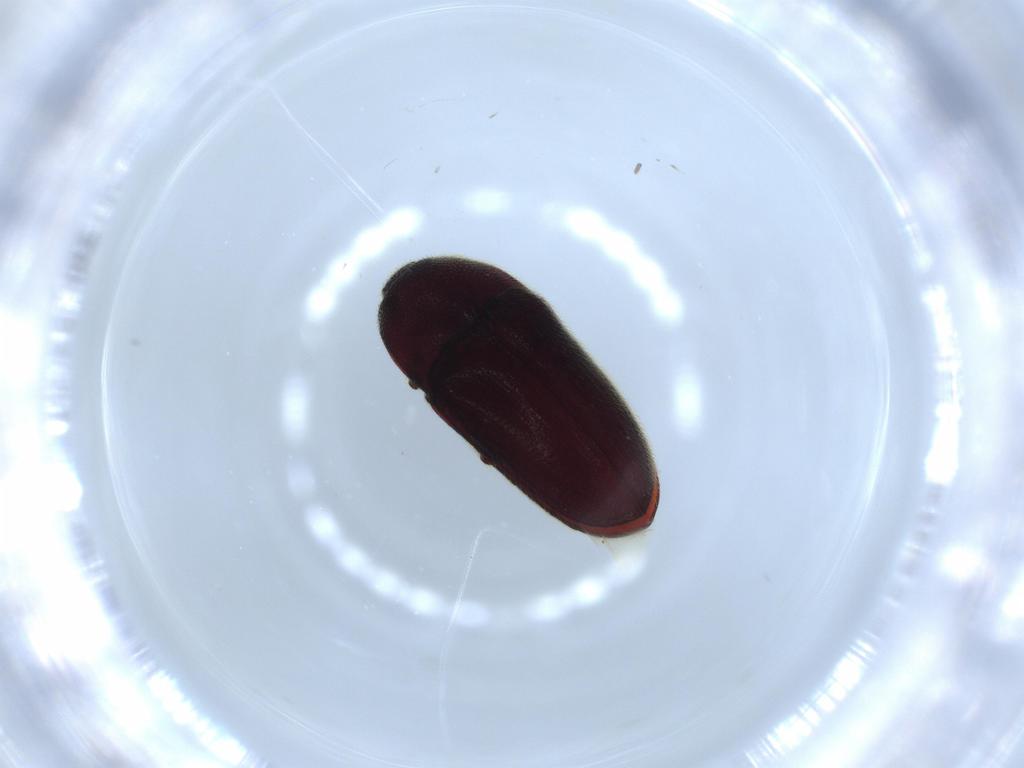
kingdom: Animalia
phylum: Arthropoda
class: Insecta
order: Coleoptera
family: Throscidae
